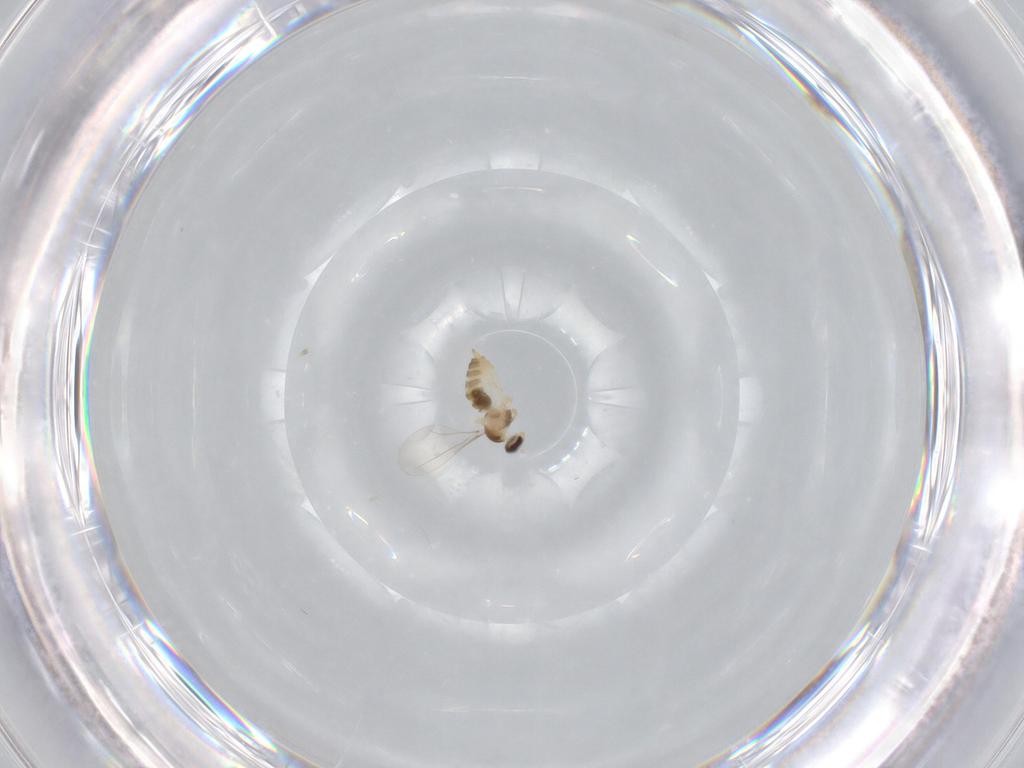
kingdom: Animalia
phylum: Arthropoda
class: Insecta
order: Diptera
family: Cecidomyiidae
